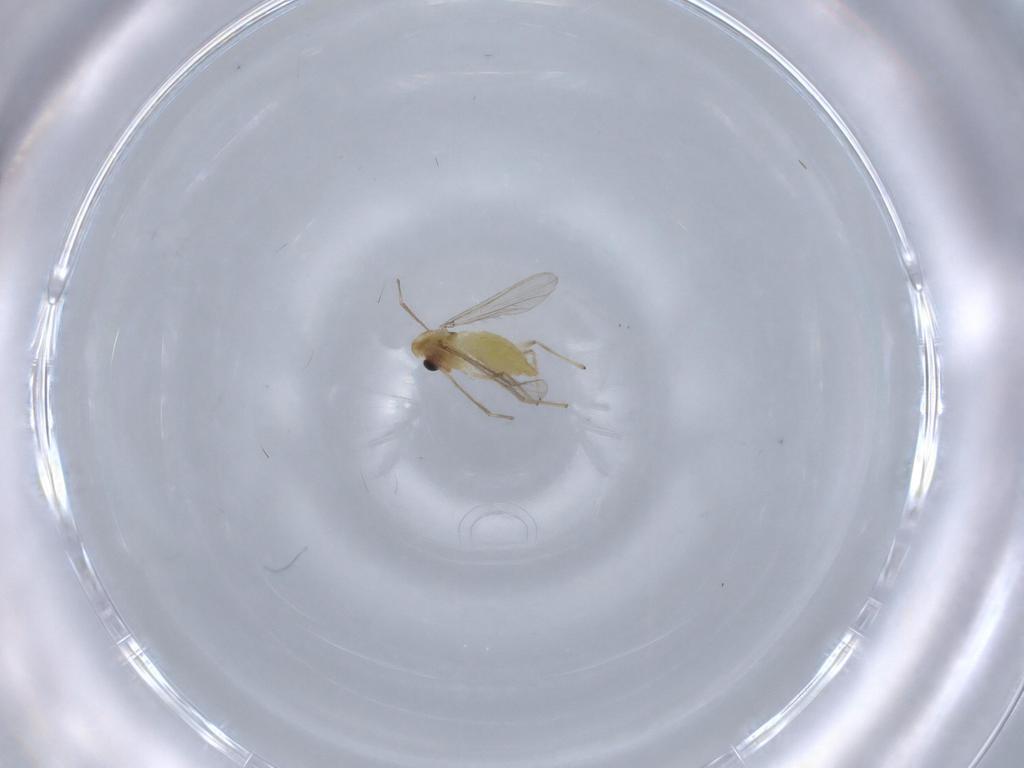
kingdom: Animalia
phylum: Arthropoda
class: Insecta
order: Diptera
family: Chironomidae
